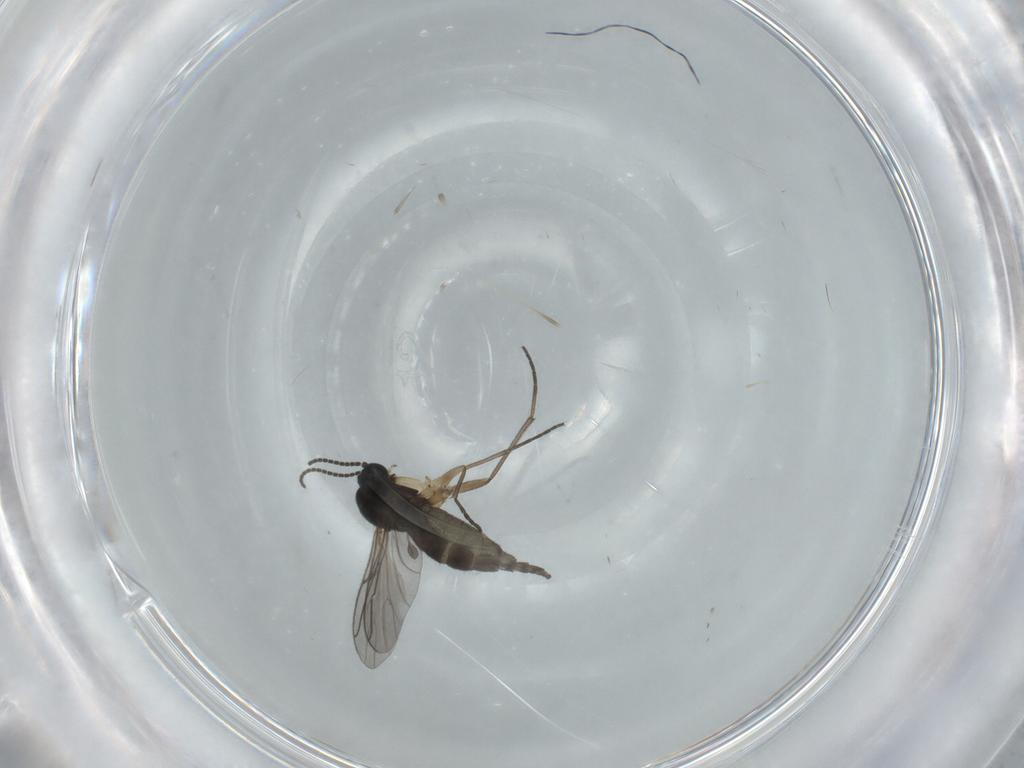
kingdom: Animalia
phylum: Arthropoda
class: Insecta
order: Diptera
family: Sciaridae
